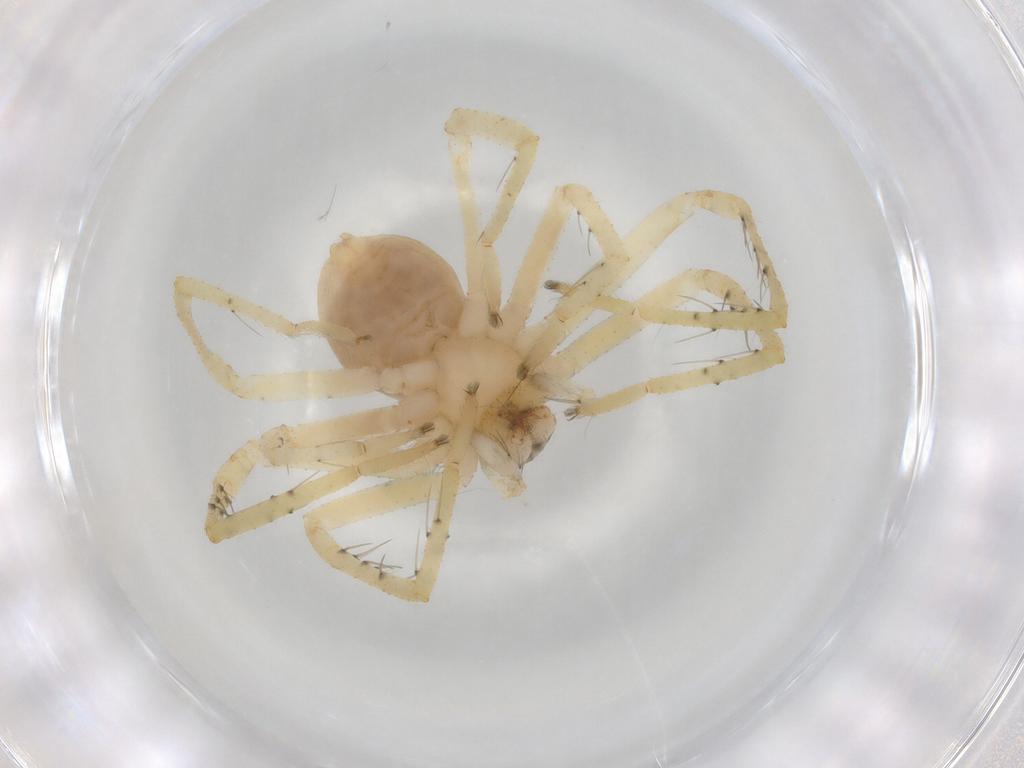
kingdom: Animalia
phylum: Arthropoda
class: Arachnida
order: Araneae
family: Sparassidae
